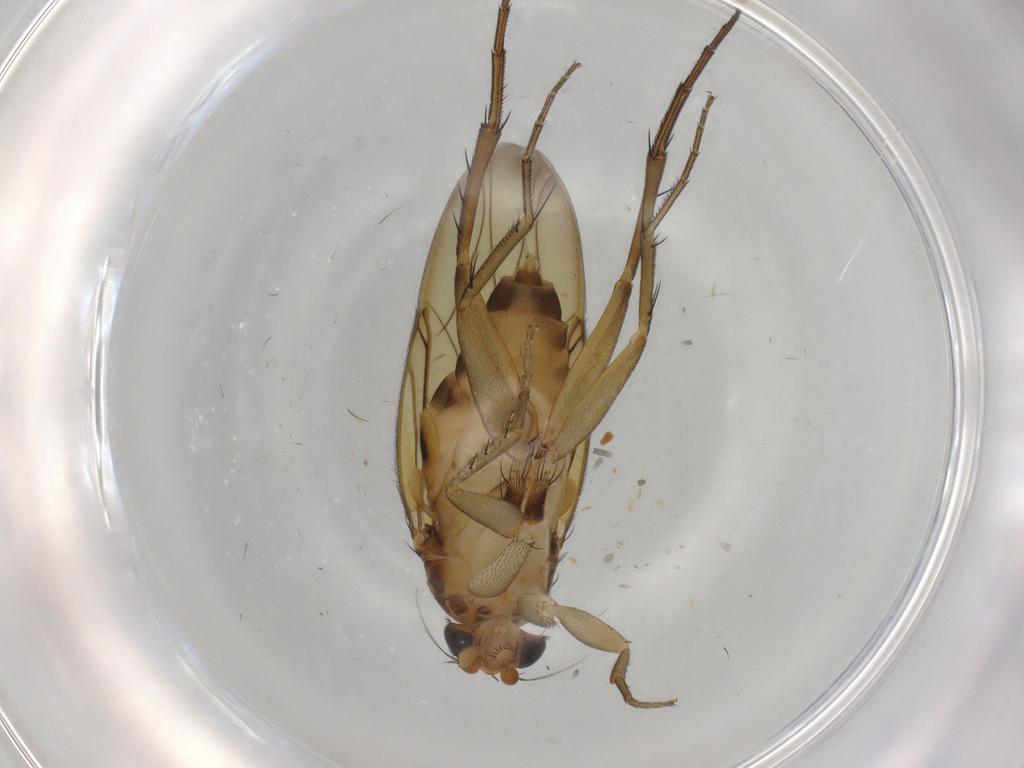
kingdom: Animalia
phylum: Arthropoda
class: Insecta
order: Diptera
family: Phoridae
